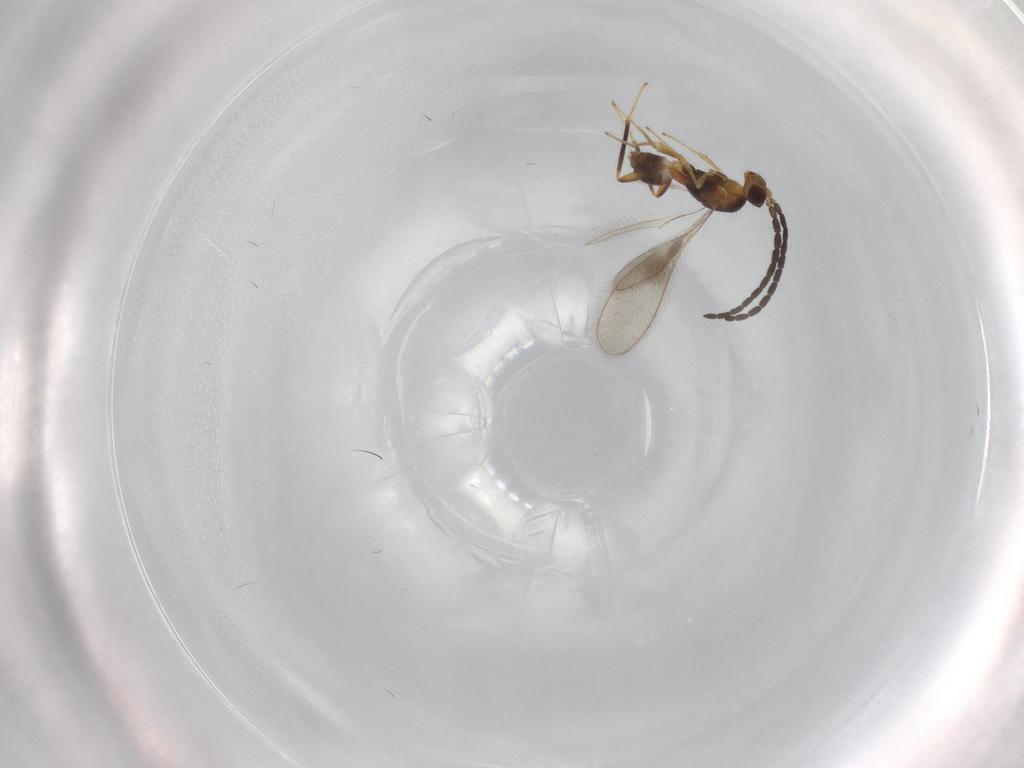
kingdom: Animalia
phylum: Arthropoda
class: Insecta
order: Hymenoptera
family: Mymaridae
